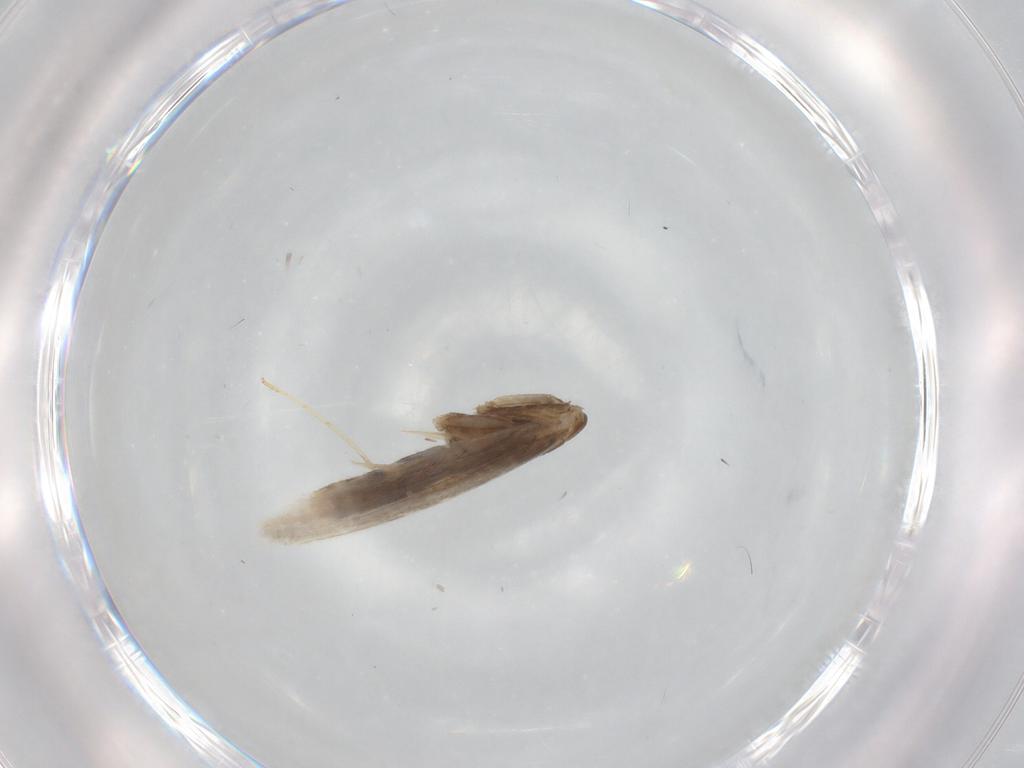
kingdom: Animalia
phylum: Arthropoda
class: Insecta
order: Lepidoptera
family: Gracillariidae
